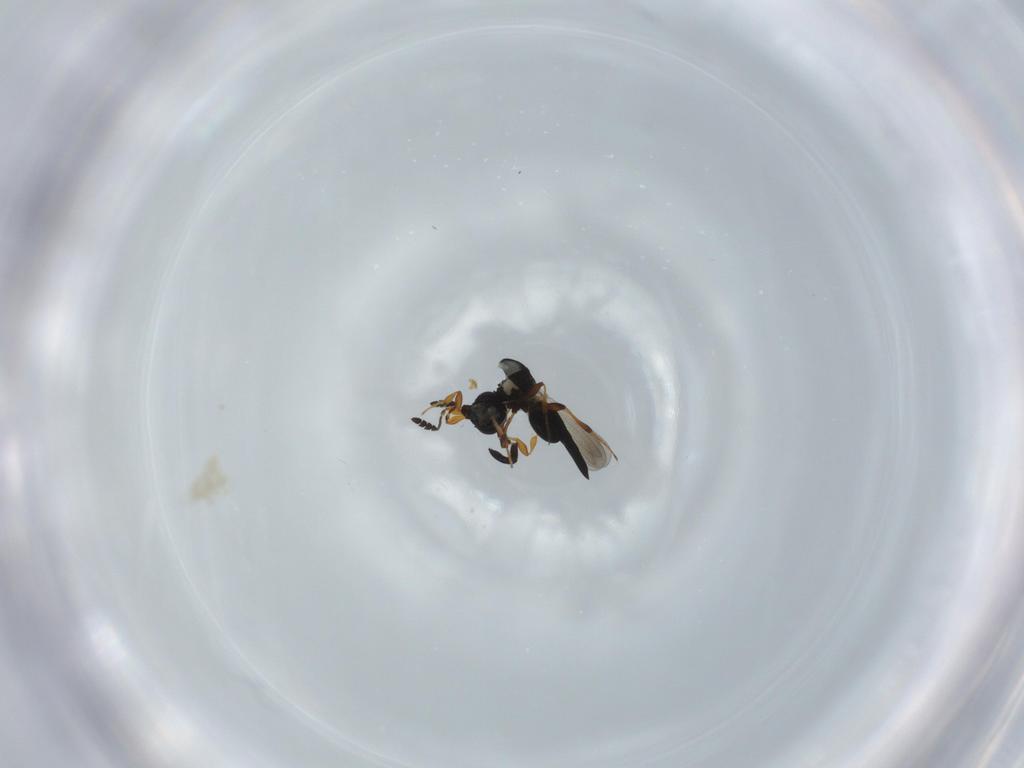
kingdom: Animalia
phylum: Arthropoda
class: Insecta
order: Hymenoptera
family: Platygastridae
